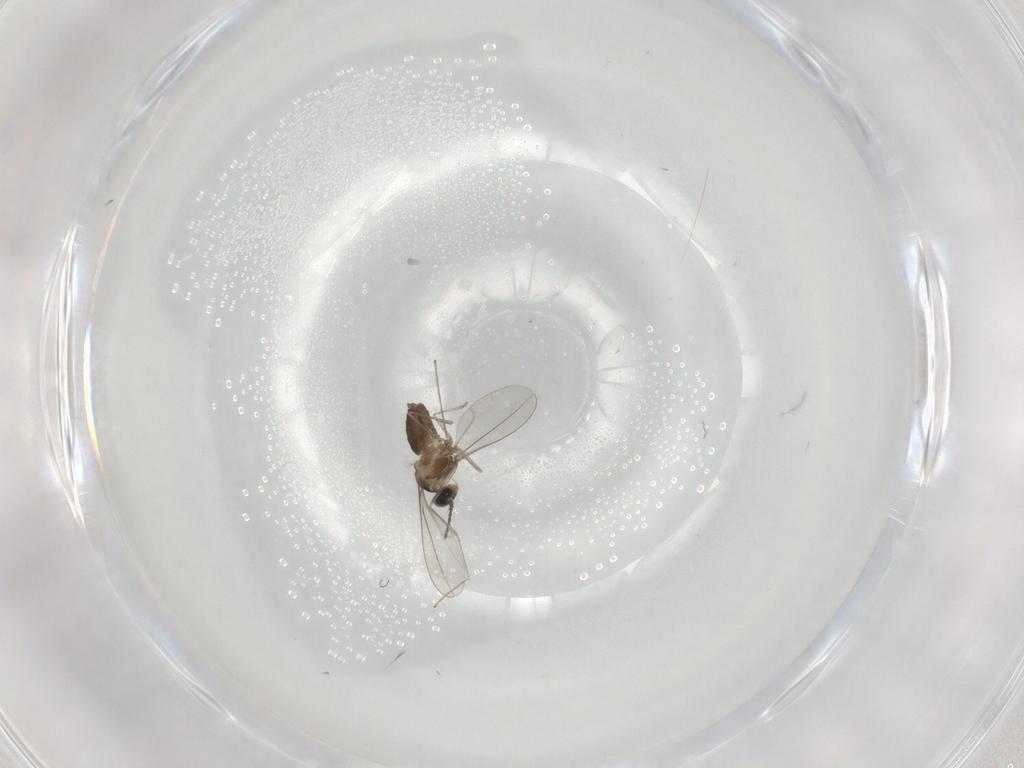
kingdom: Animalia
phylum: Arthropoda
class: Insecta
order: Diptera
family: Cecidomyiidae
